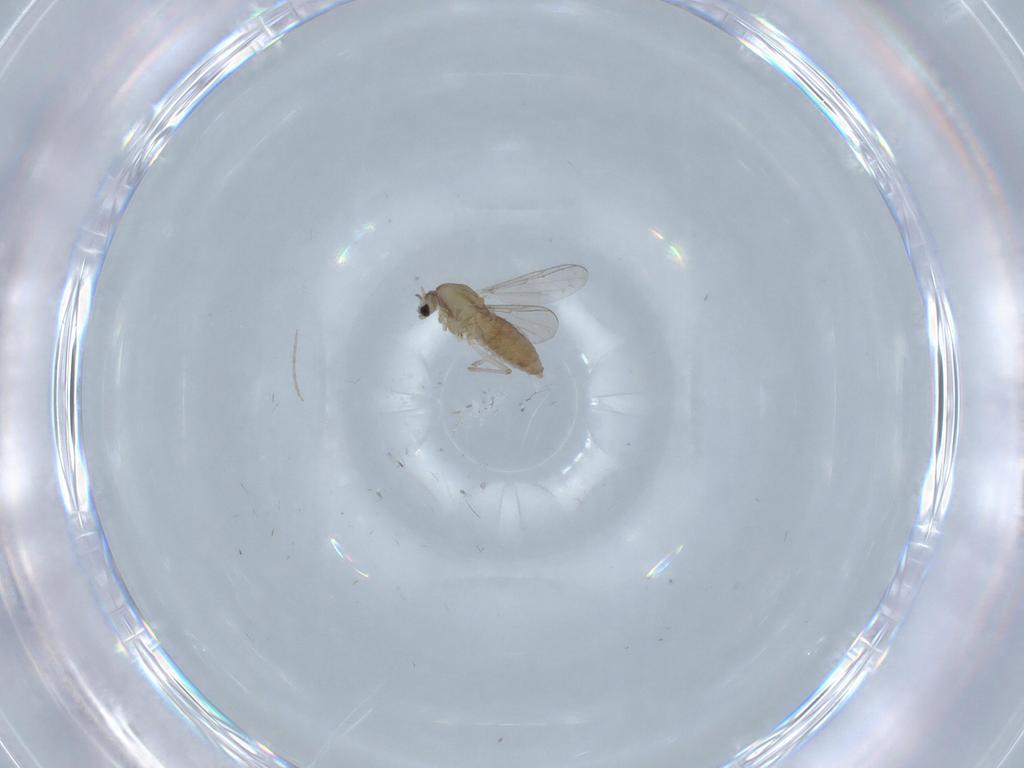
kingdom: Animalia
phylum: Arthropoda
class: Insecta
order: Diptera
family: Chironomidae
